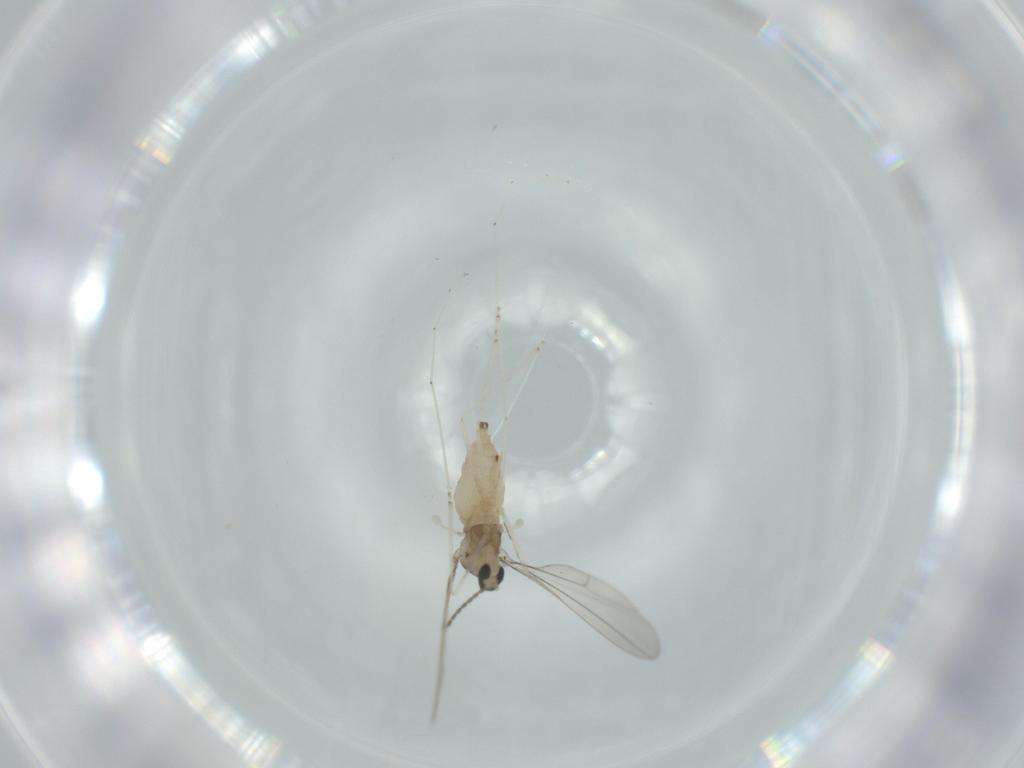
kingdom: Animalia
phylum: Arthropoda
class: Insecta
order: Diptera
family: Cecidomyiidae
